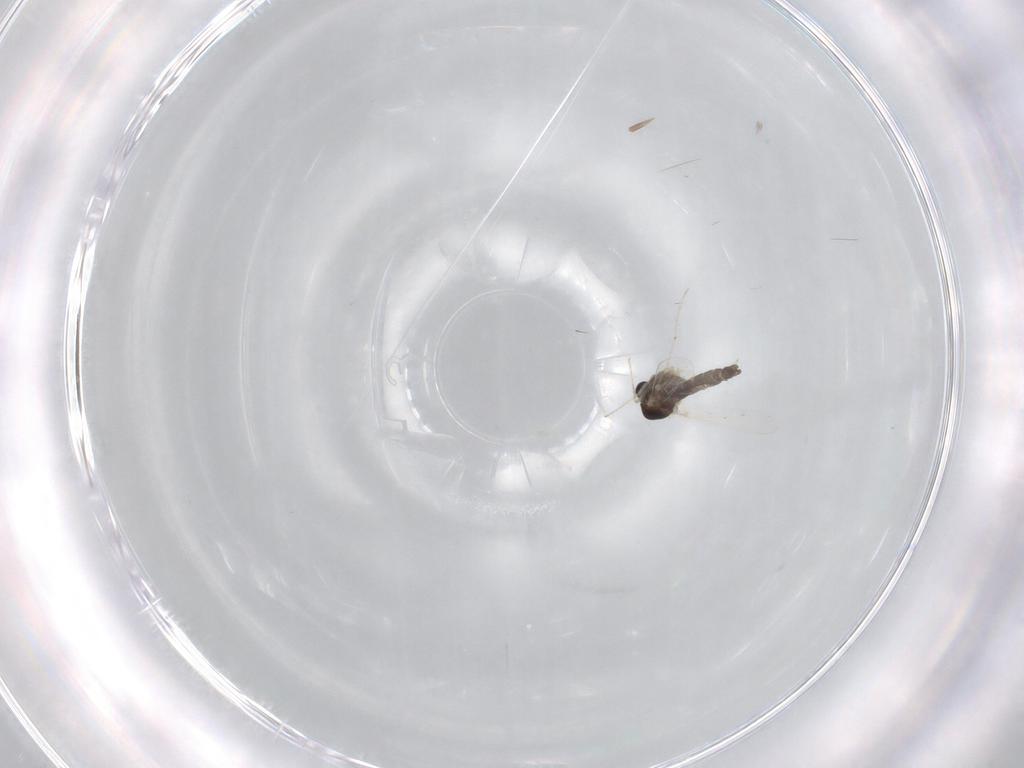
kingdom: Animalia
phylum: Arthropoda
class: Insecta
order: Diptera
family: Chironomidae
